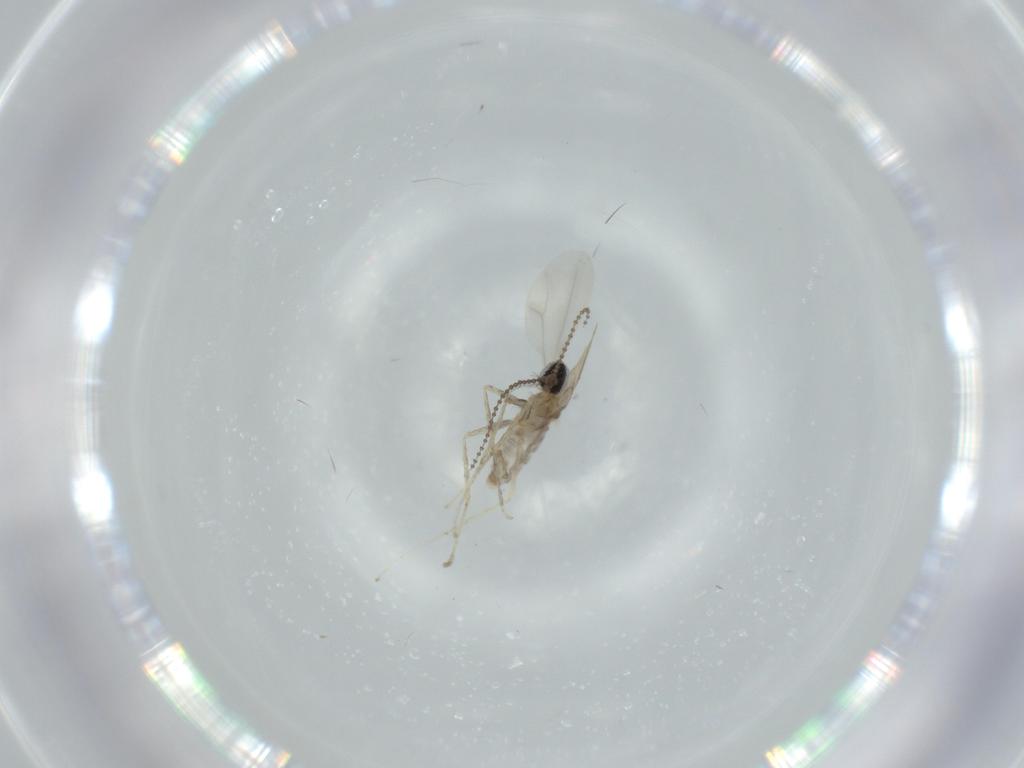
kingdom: Animalia
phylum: Arthropoda
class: Insecta
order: Diptera
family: Cecidomyiidae
